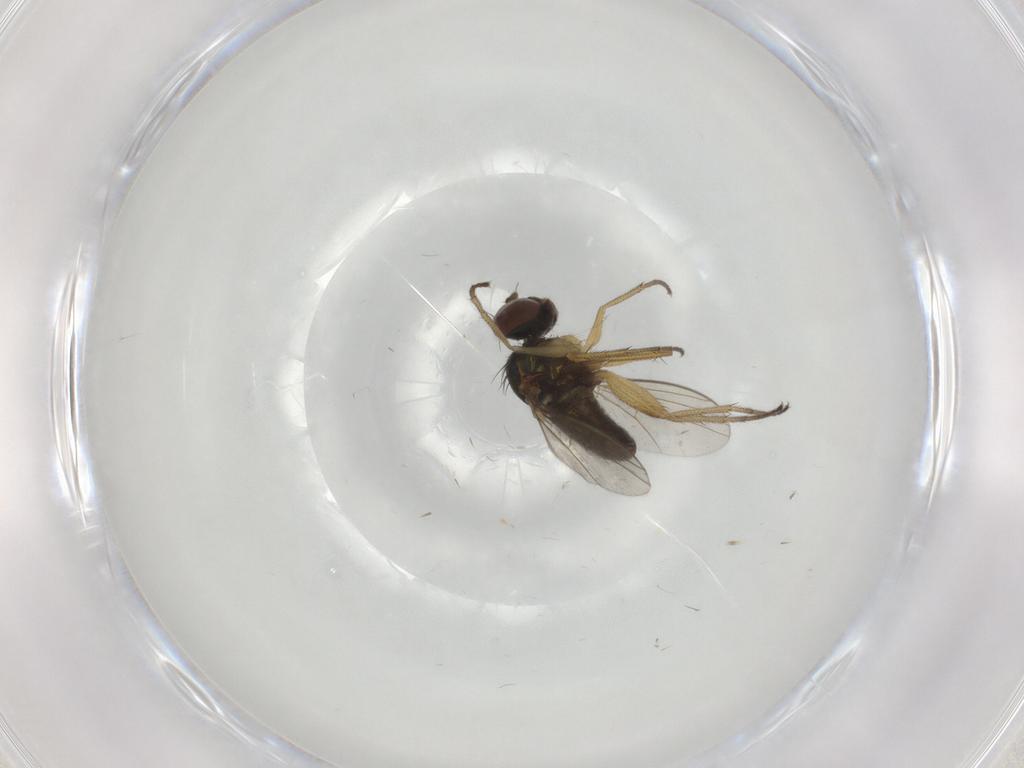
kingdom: Animalia
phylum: Arthropoda
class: Insecta
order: Diptera
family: Dolichopodidae
